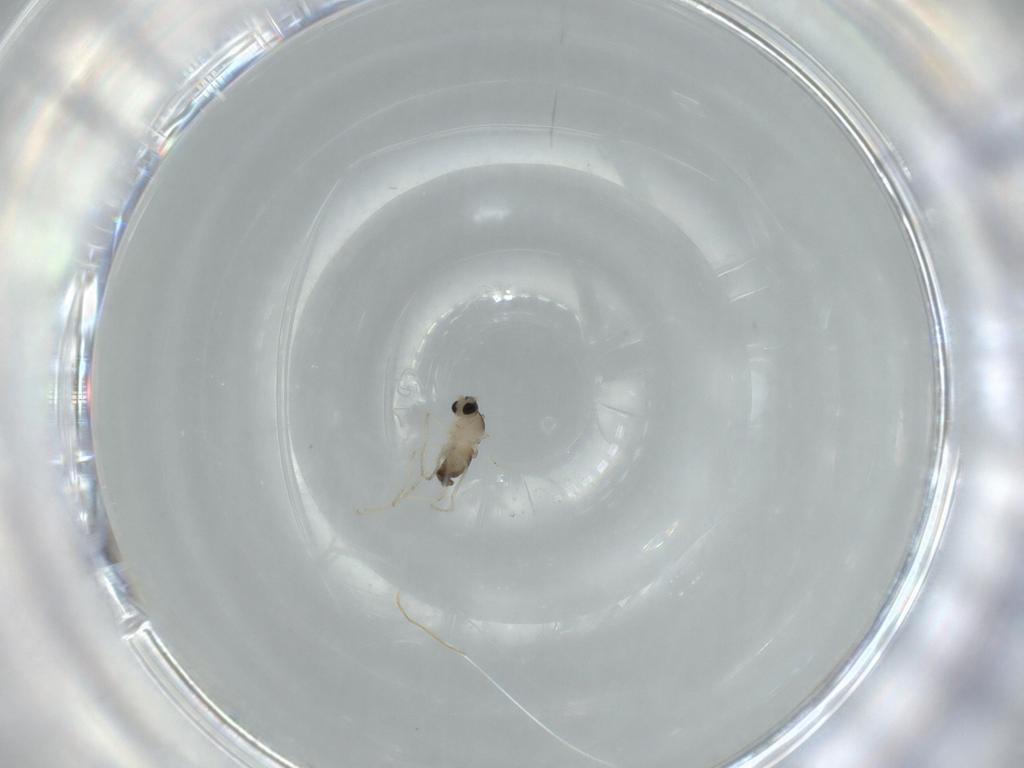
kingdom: Animalia
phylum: Arthropoda
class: Insecta
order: Diptera
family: Cecidomyiidae
